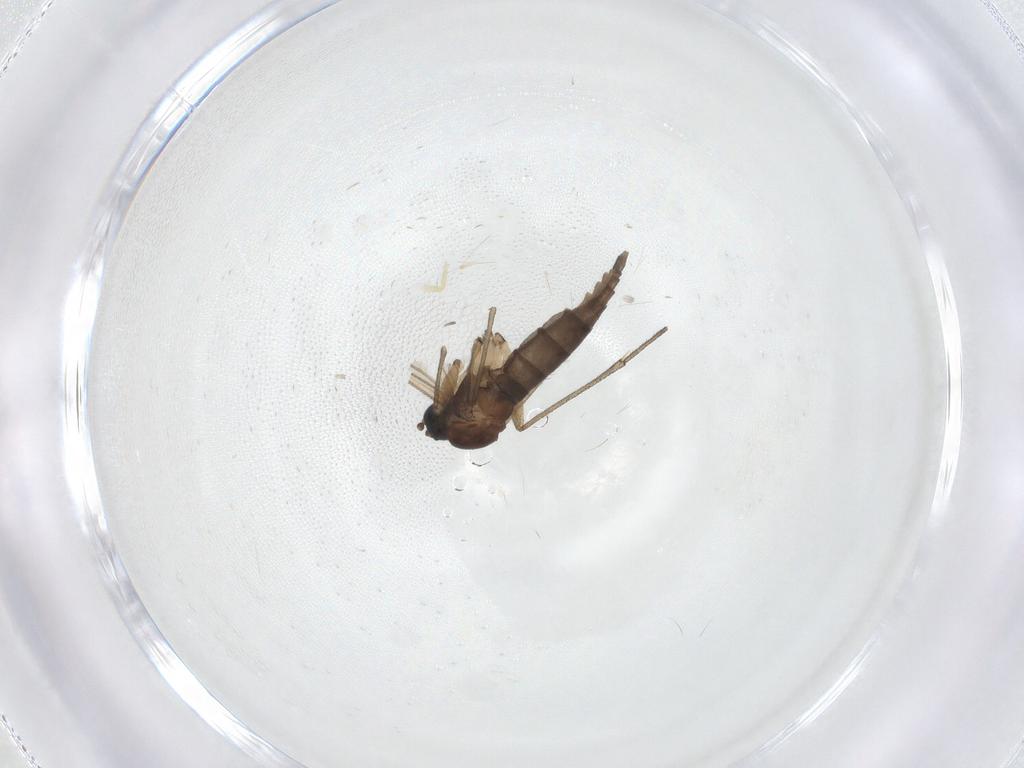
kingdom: Animalia
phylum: Arthropoda
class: Insecta
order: Diptera
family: Sciaridae
